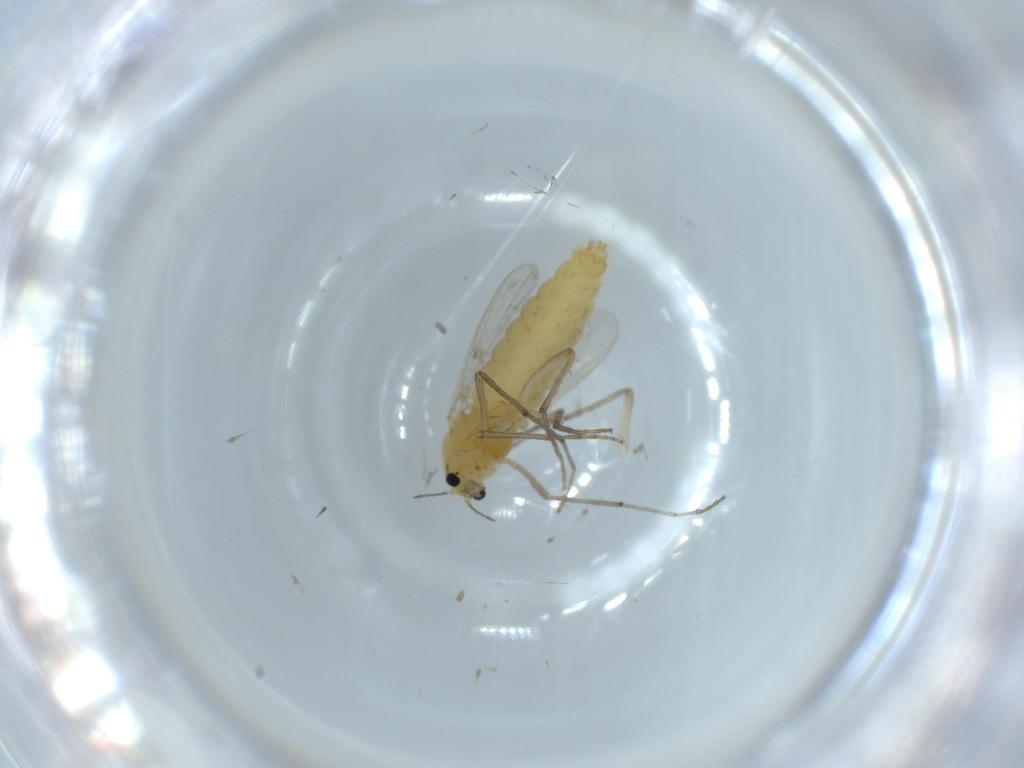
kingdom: Animalia
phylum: Arthropoda
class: Insecta
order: Diptera
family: Chironomidae
